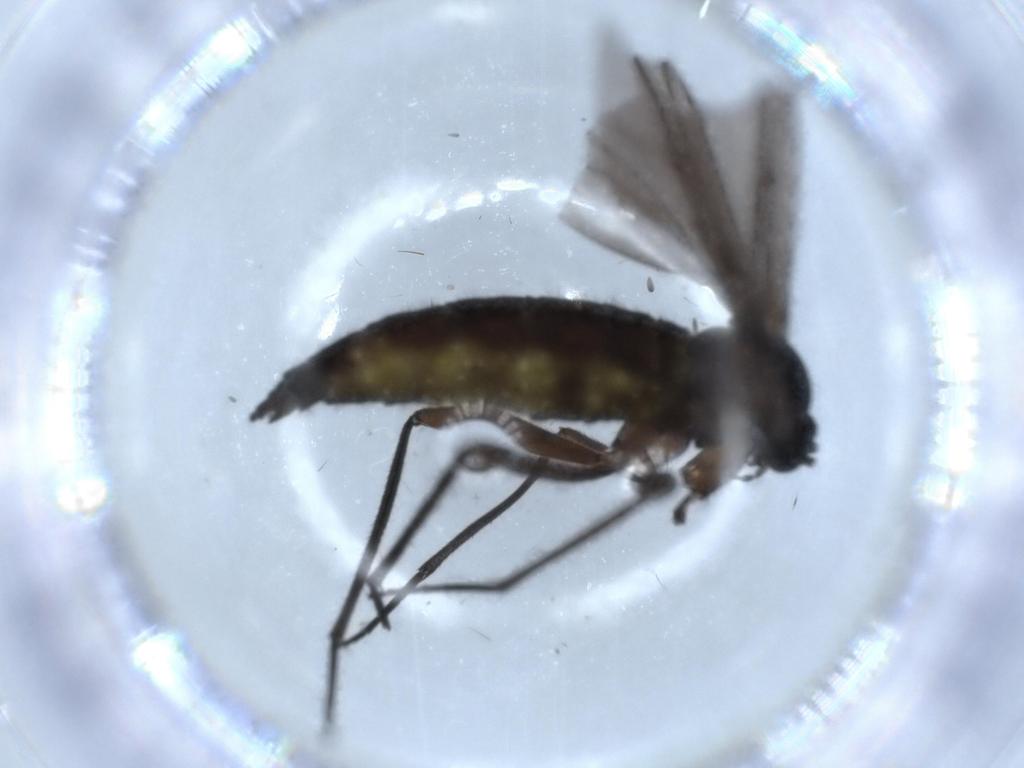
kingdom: Animalia
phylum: Arthropoda
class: Insecta
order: Diptera
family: Sciaridae
